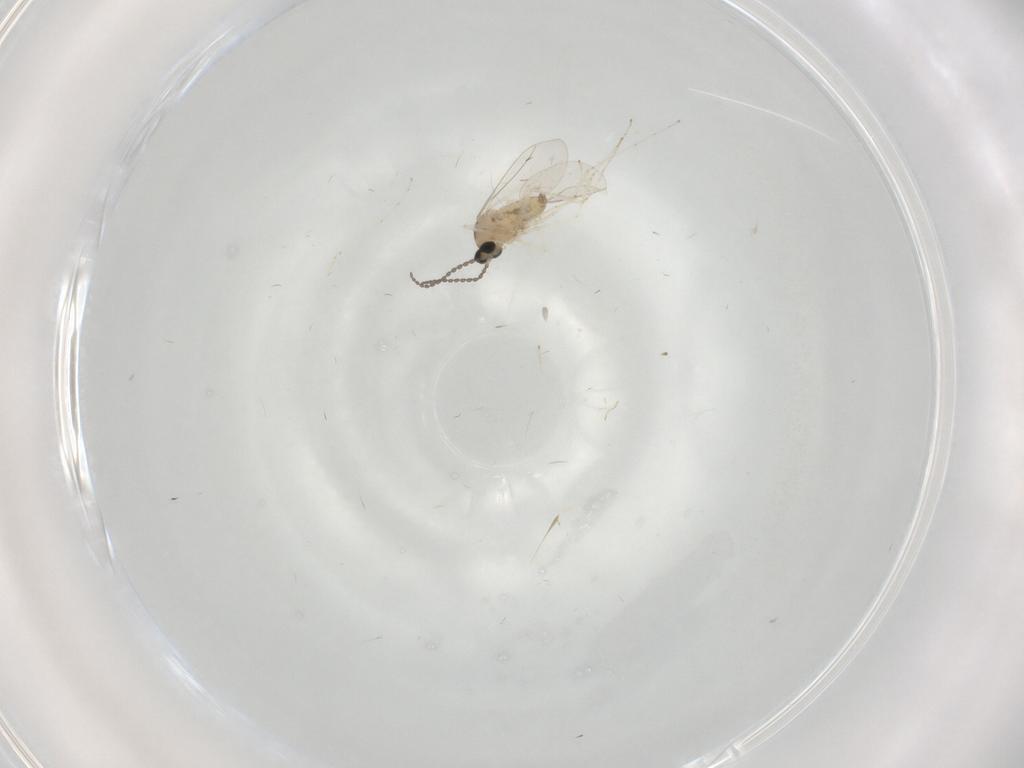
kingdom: Animalia
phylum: Arthropoda
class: Insecta
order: Diptera
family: Cecidomyiidae
